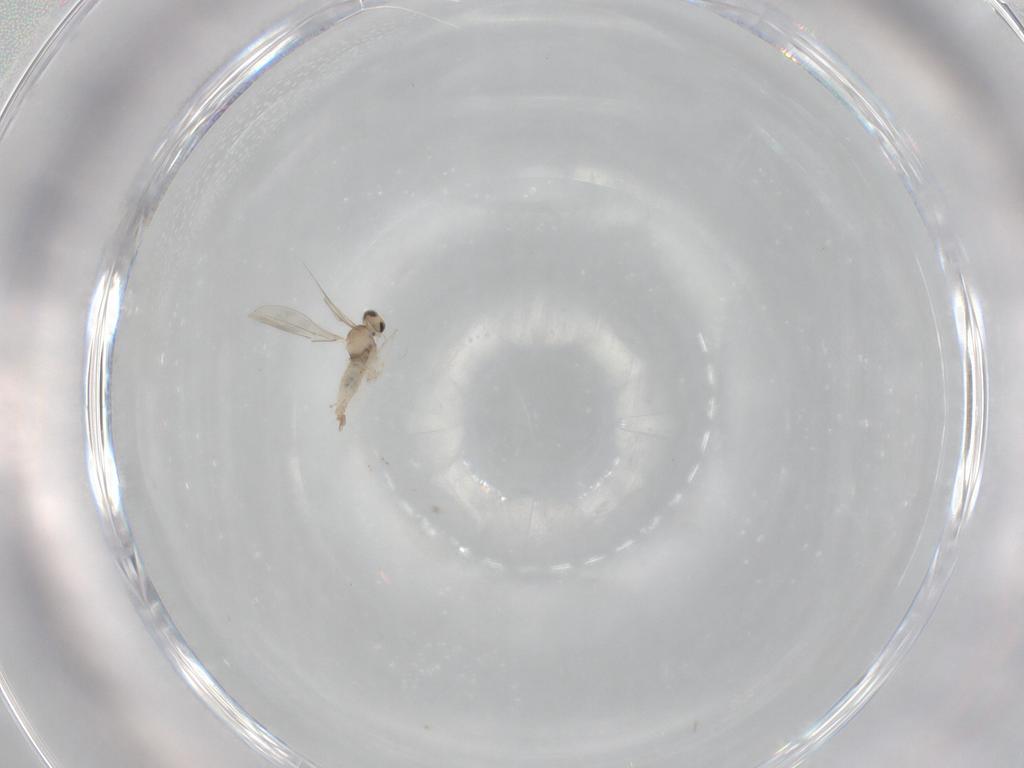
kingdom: Animalia
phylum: Arthropoda
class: Insecta
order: Diptera
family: Cecidomyiidae
